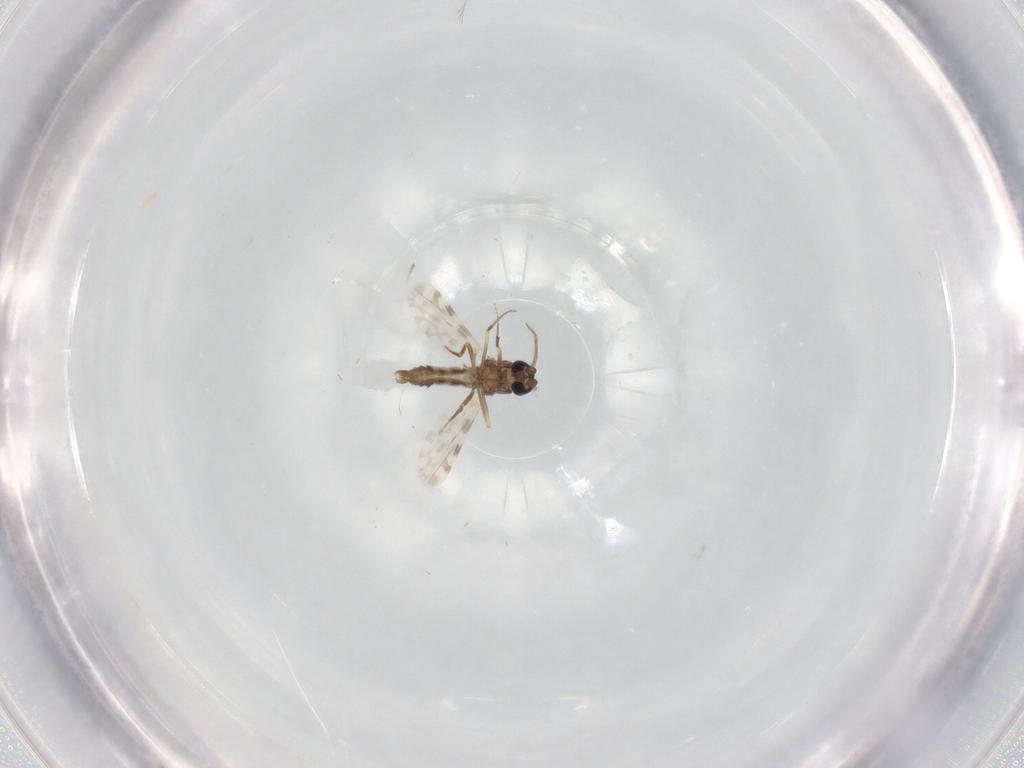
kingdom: Animalia
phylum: Arthropoda
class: Insecta
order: Diptera
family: Ceratopogonidae
